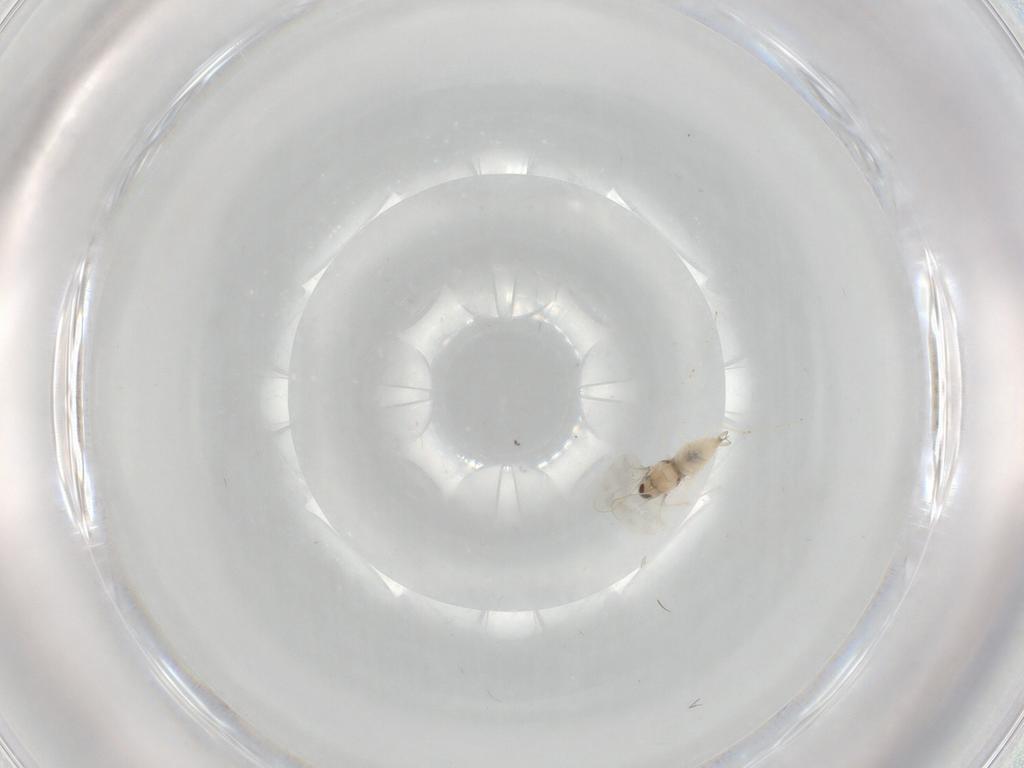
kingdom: Animalia
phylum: Arthropoda
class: Insecta
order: Diptera
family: Cecidomyiidae
